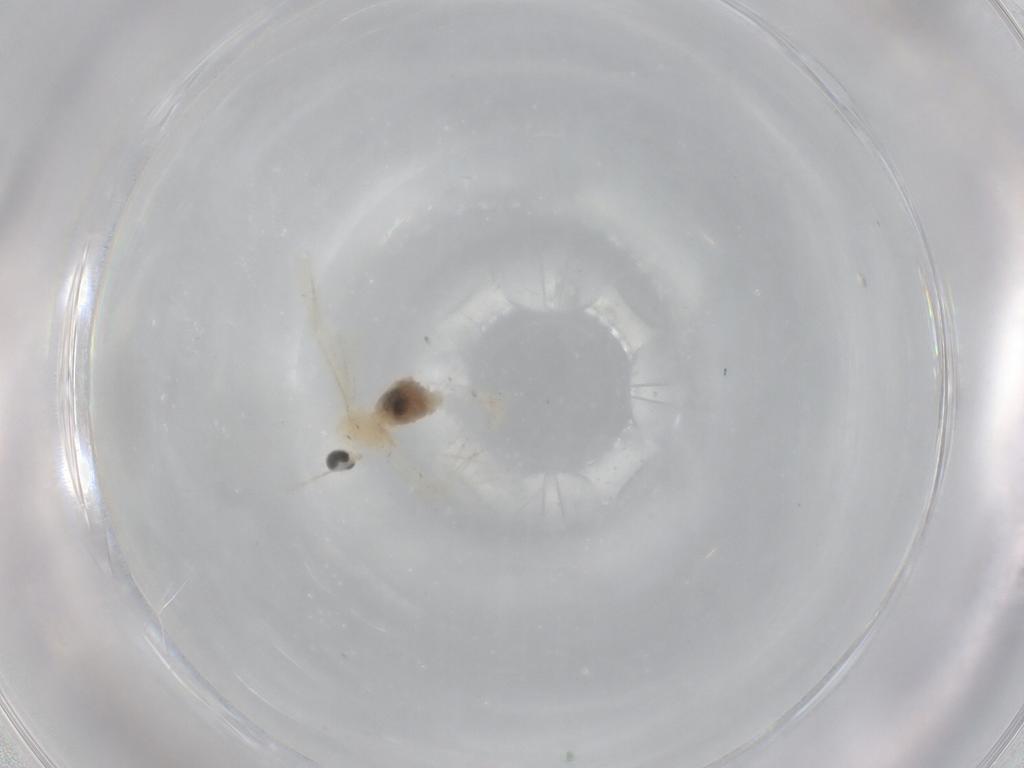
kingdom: Animalia
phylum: Arthropoda
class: Insecta
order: Diptera
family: Cecidomyiidae
